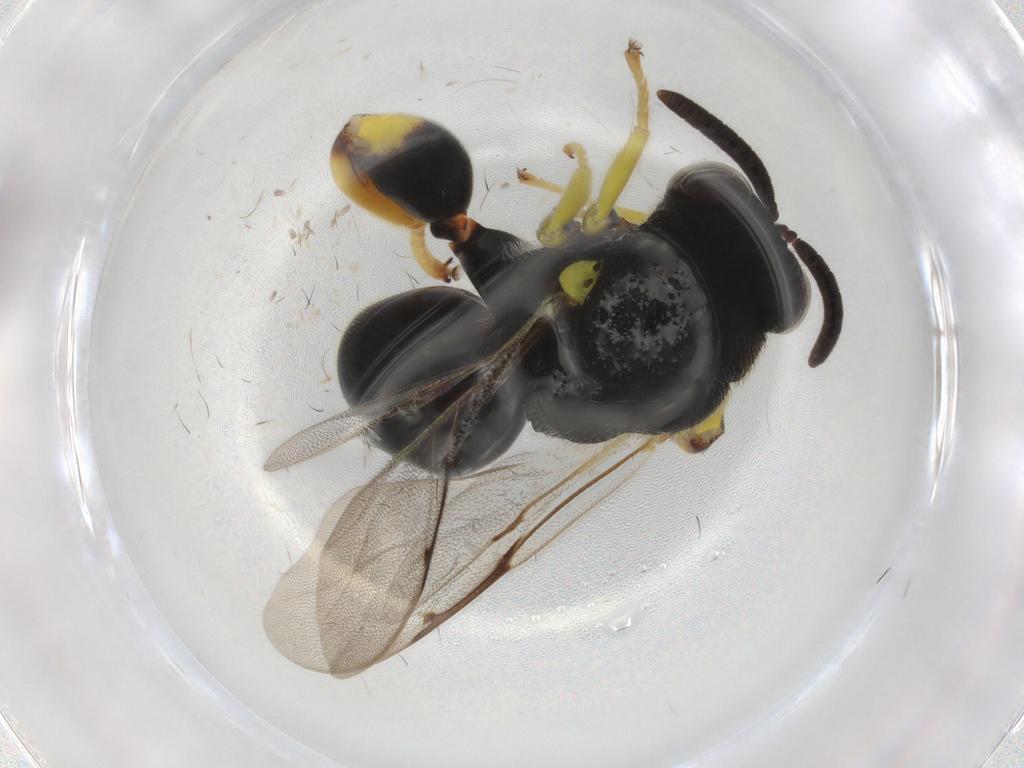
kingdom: Animalia
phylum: Arthropoda
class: Insecta
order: Hymenoptera
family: Chalcididae
